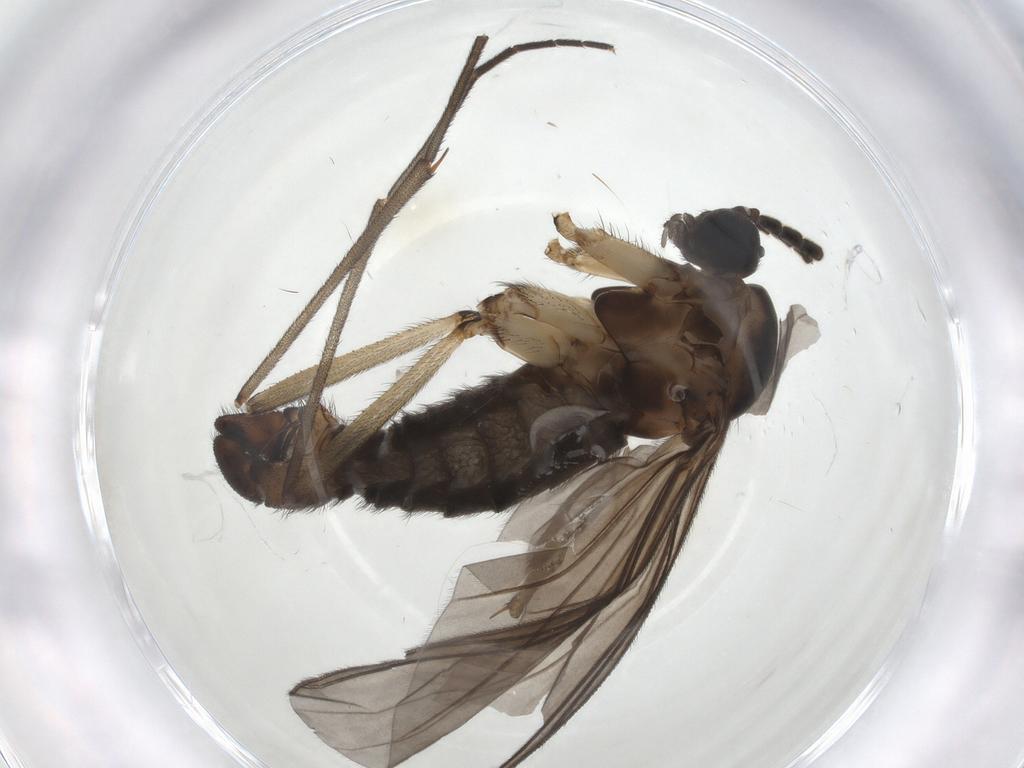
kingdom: Animalia
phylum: Arthropoda
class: Insecta
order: Diptera
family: Sciaridae
